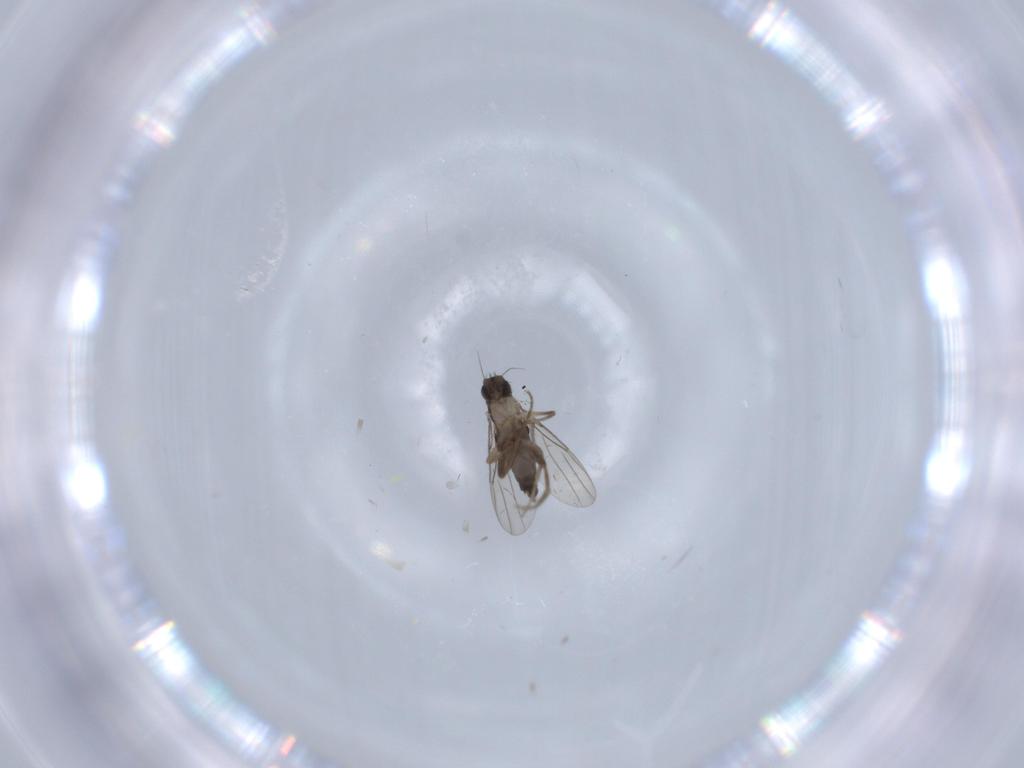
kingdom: Animalia
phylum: Arthropoda
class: Insecta
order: Diptera
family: Phoridae
